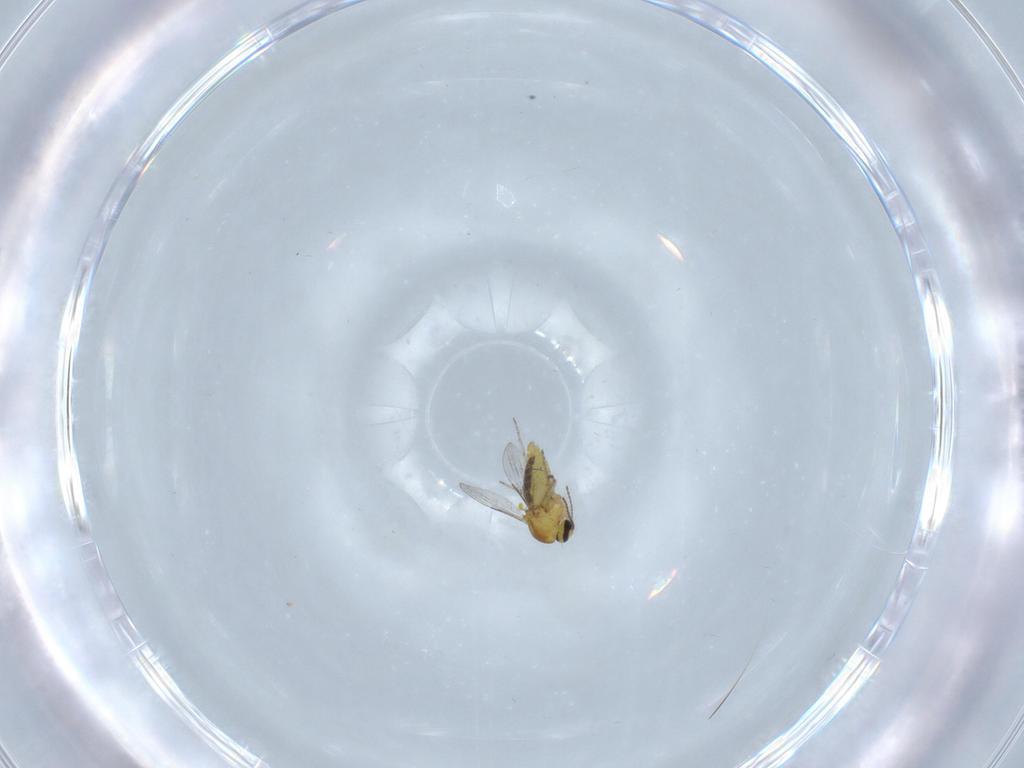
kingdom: Animalia
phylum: Arthropoda
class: Insecta
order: Diptera
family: Ceratopogonidae
